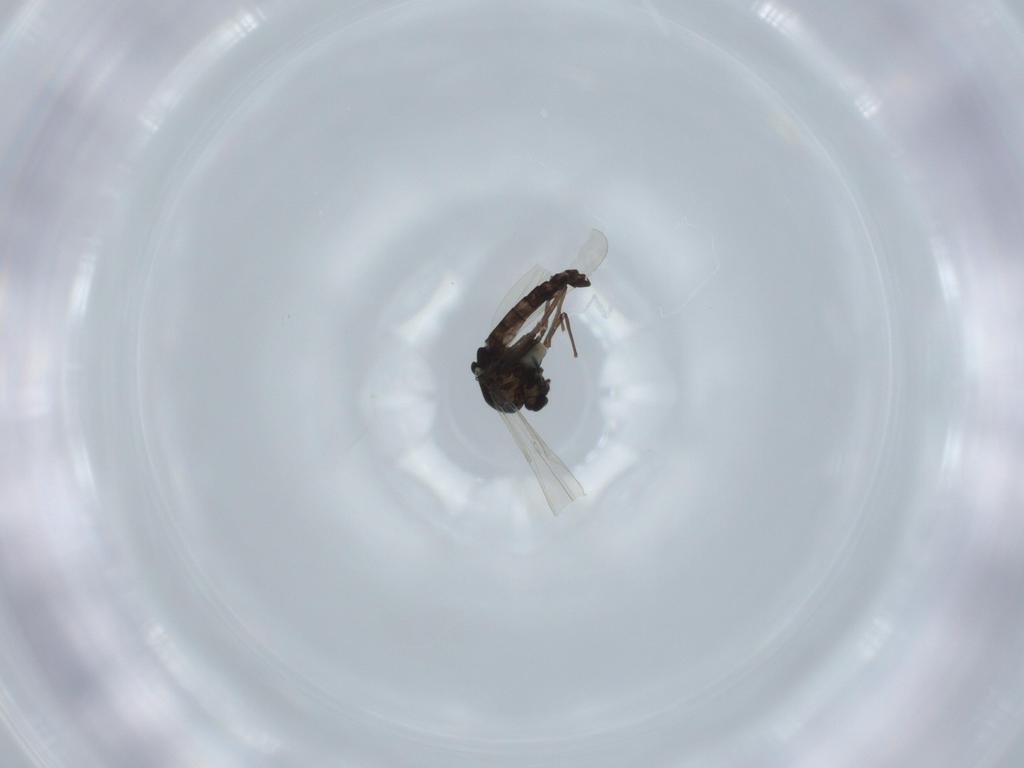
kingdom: Animalia
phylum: Arthropoda
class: Insecta
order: Diptera
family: Chironomidae
